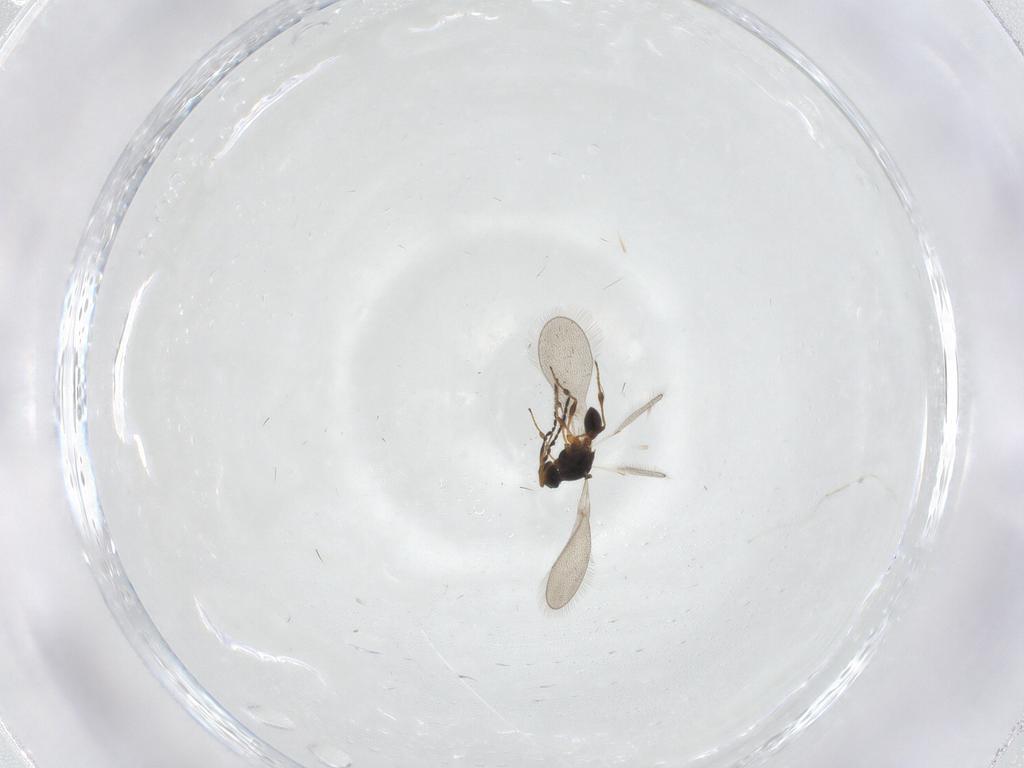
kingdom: Animalia
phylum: Arthropoda
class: Insecta
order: Hymenoptera
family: Platygastridae
